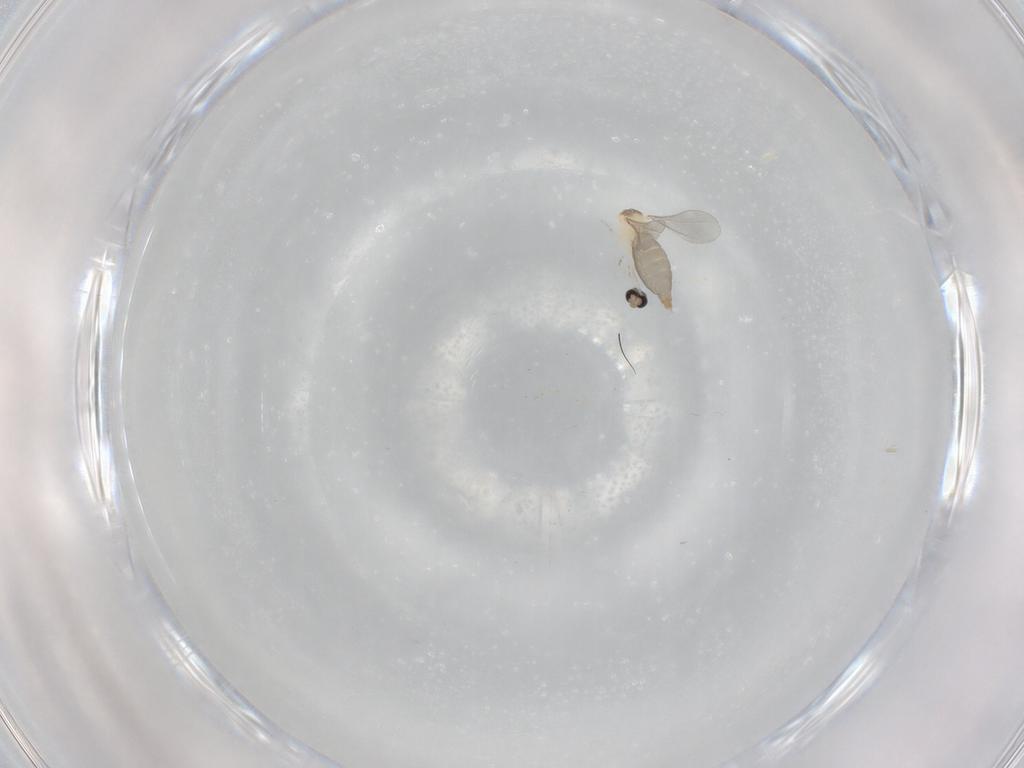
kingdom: Animalia
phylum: Arthropoda
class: Insecta
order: Diptera
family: Cecidomyiidae
